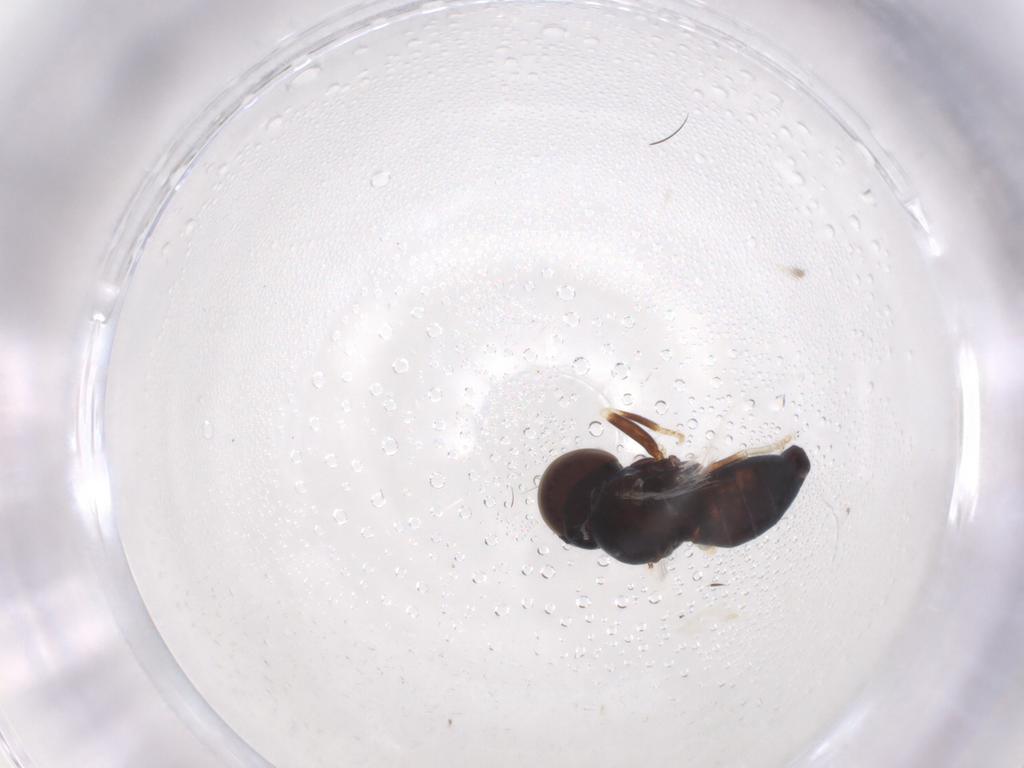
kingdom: Animalia
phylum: Arthropoda
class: Insecta
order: Diptera
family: Pipunculidae
